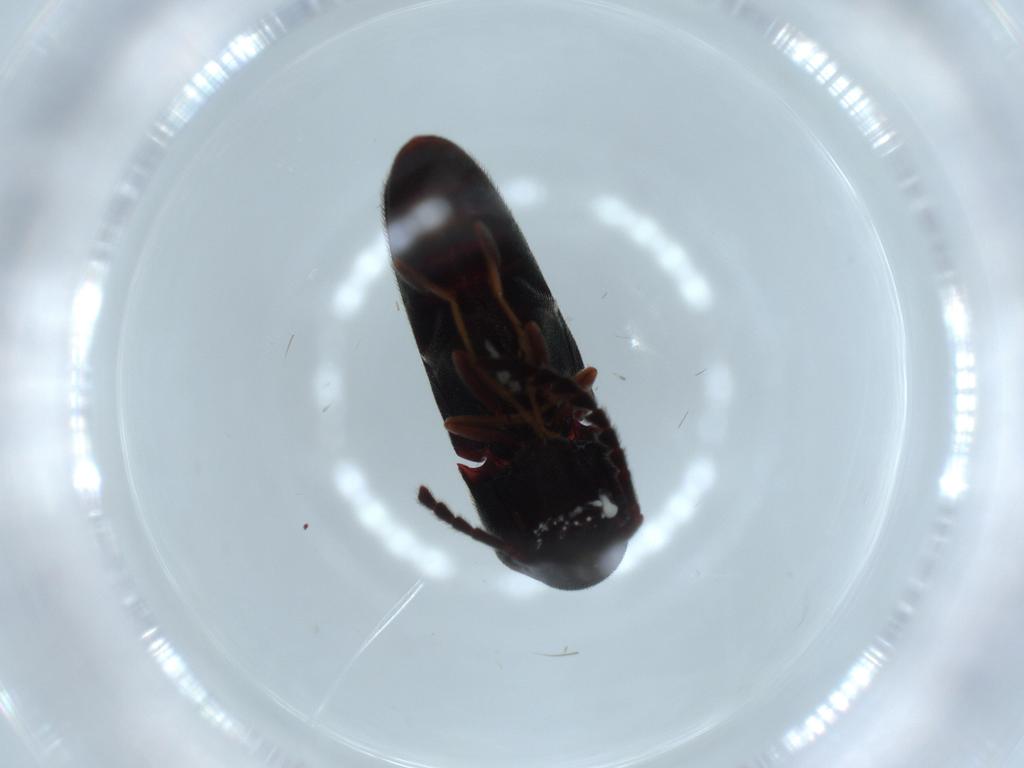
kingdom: Animalia
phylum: Arthropoda
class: Insecta
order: Coleoptera
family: Eucnemidae
